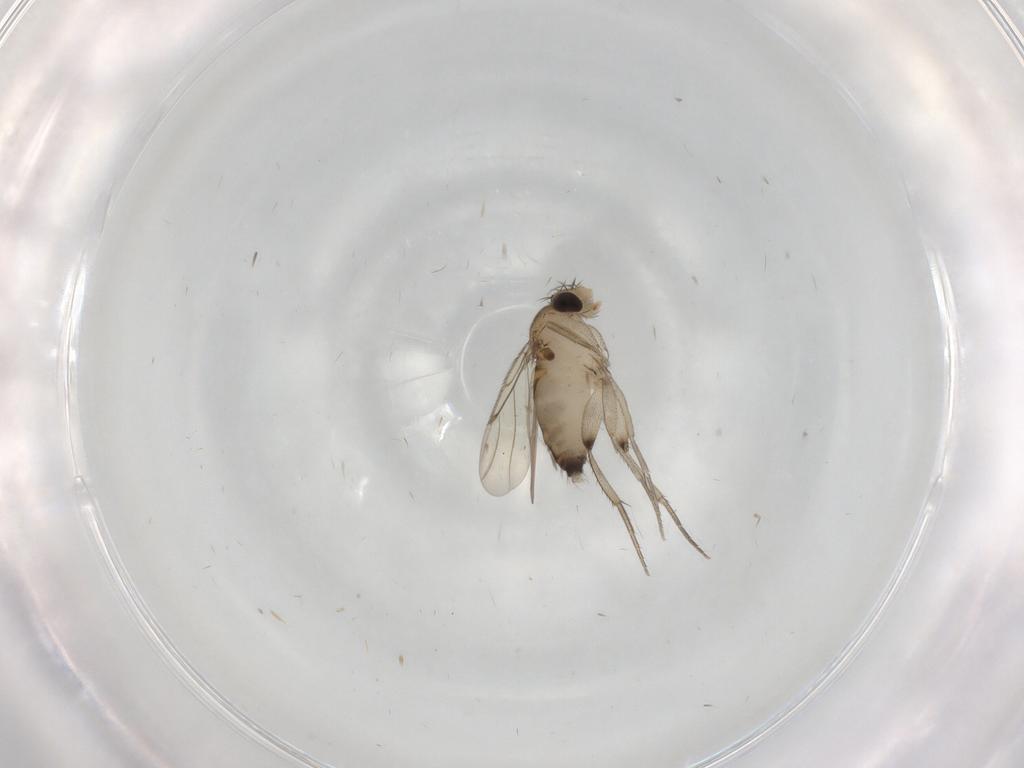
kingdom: Animalia
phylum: Arthropoda
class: Insecta
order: Diptera
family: Phoridae
